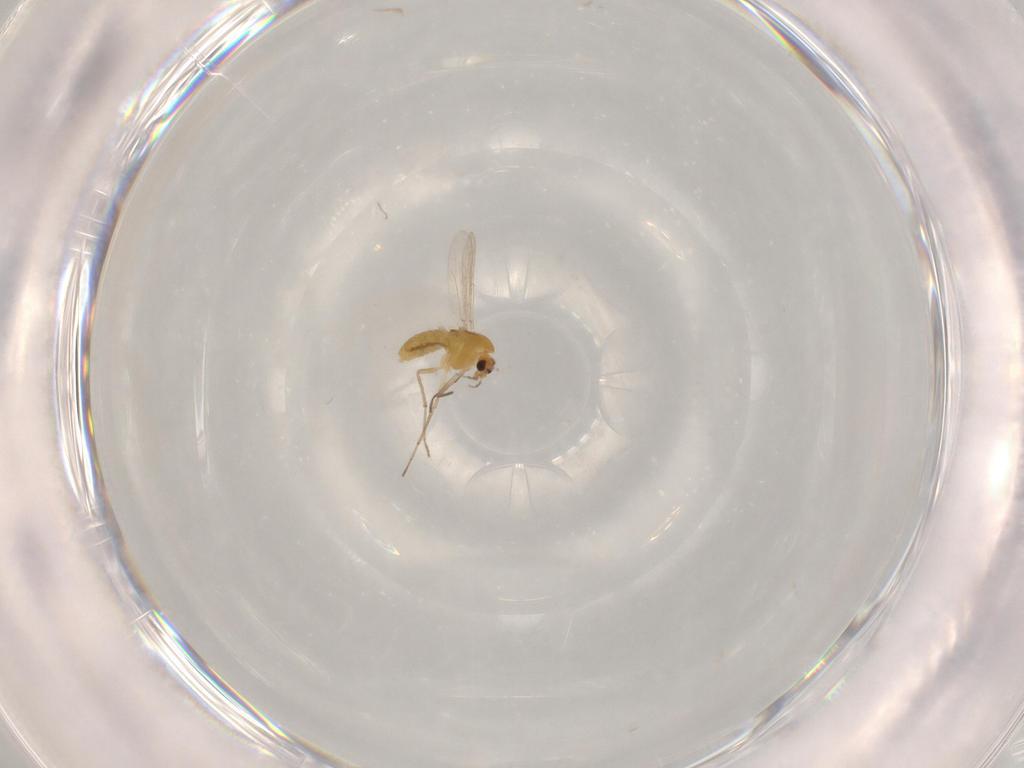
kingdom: Animalia
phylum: Arthropoda
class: Insecta
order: Diptera
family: Chironomidae
